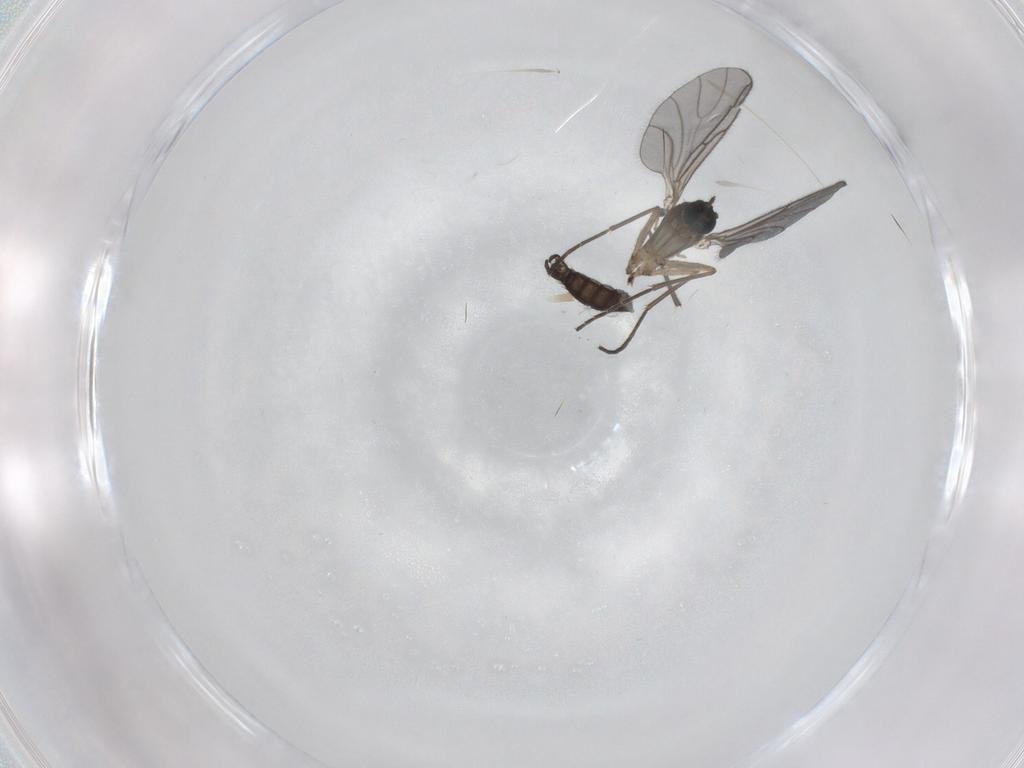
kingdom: Animalia
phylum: Arthropoda
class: Insecta
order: Diptera
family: Sciaridae
